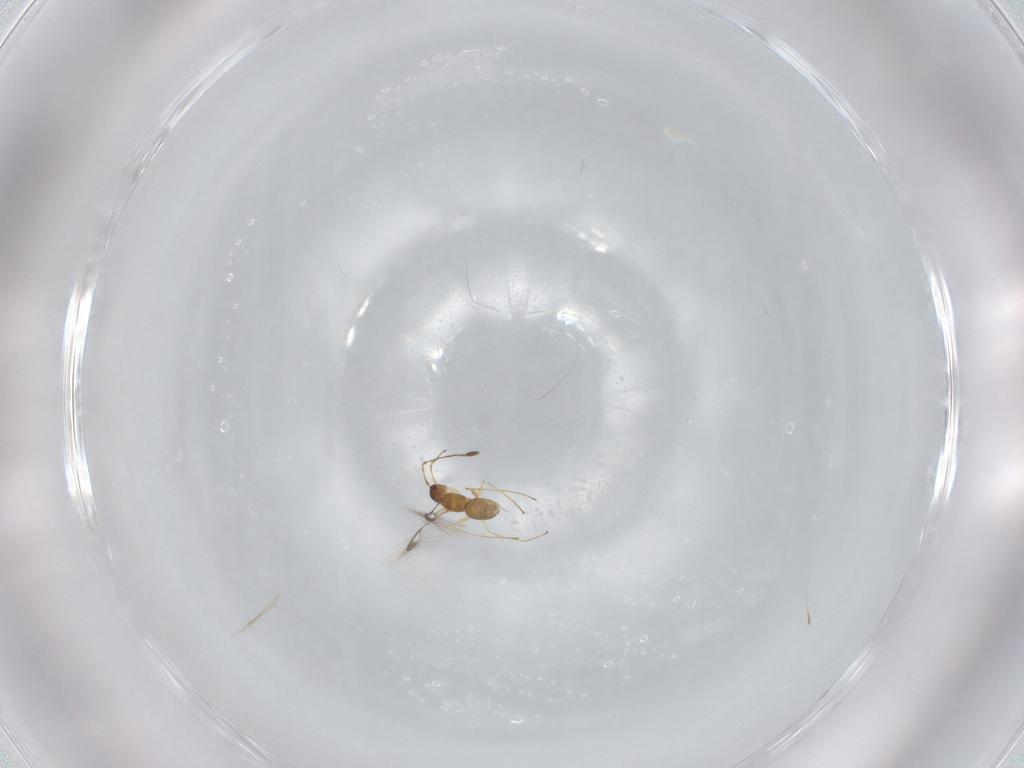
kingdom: Animalia
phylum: Arthropoda
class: Insecta
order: Hymenoptera
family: Mymaridae
